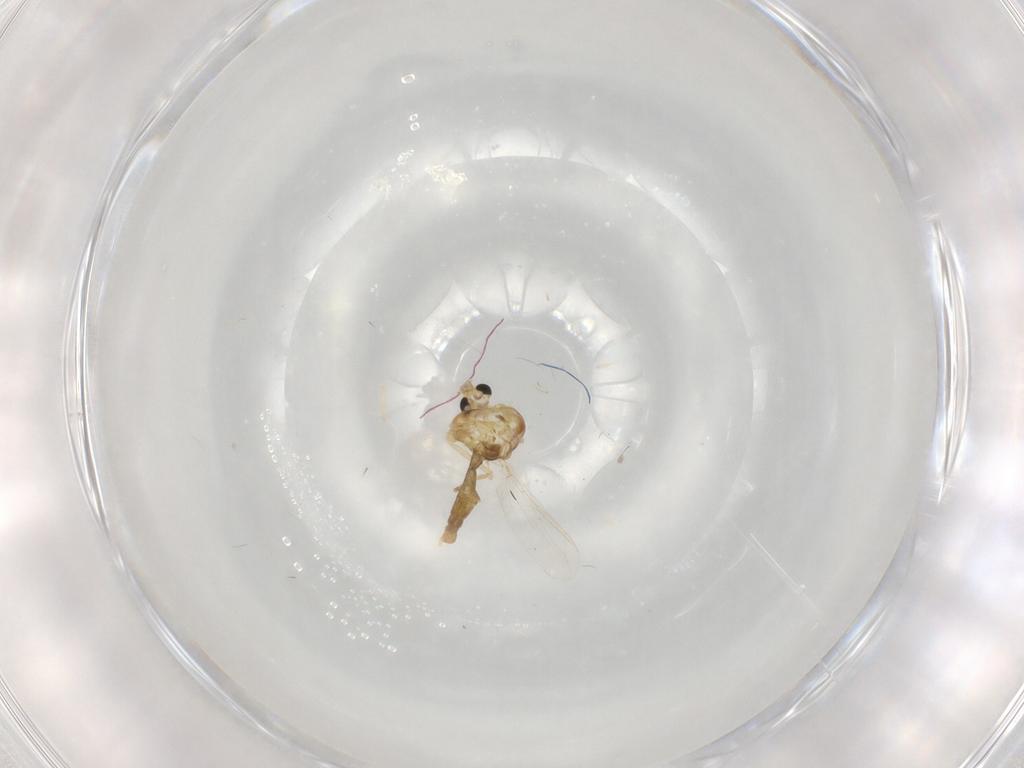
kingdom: Animalia
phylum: Arthropoda
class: Insecta
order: Diptera
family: Chironomidae
